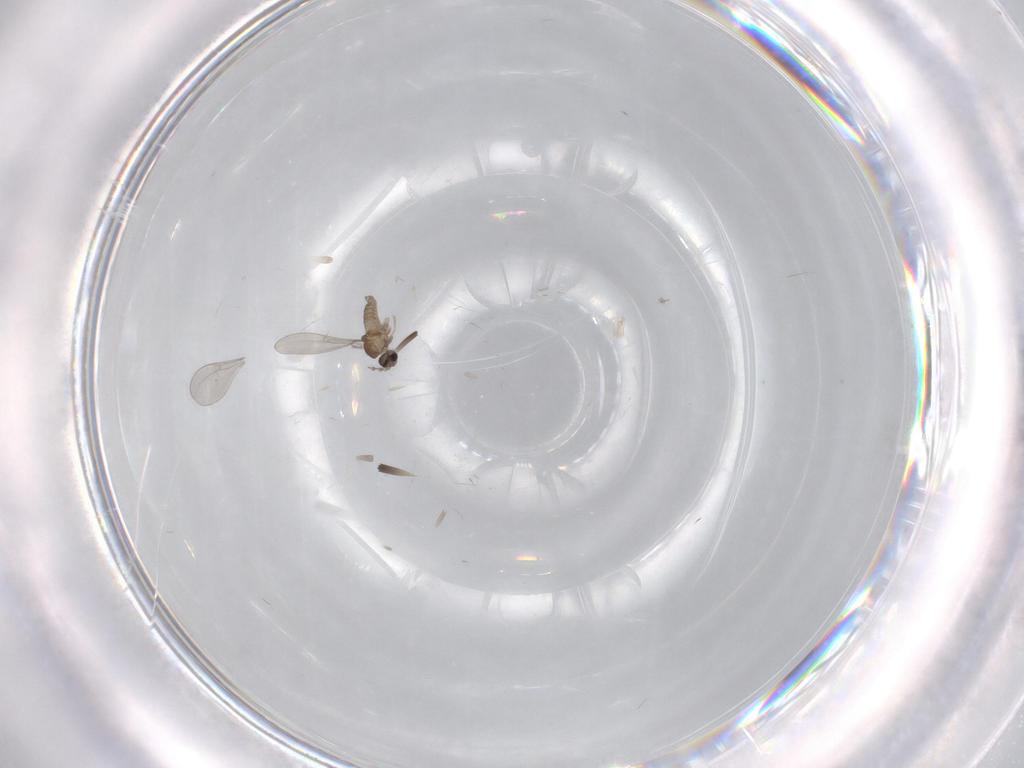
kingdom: Animalia
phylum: Arthropoda
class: Insecta
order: Diptera
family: Cecidomyiidae
